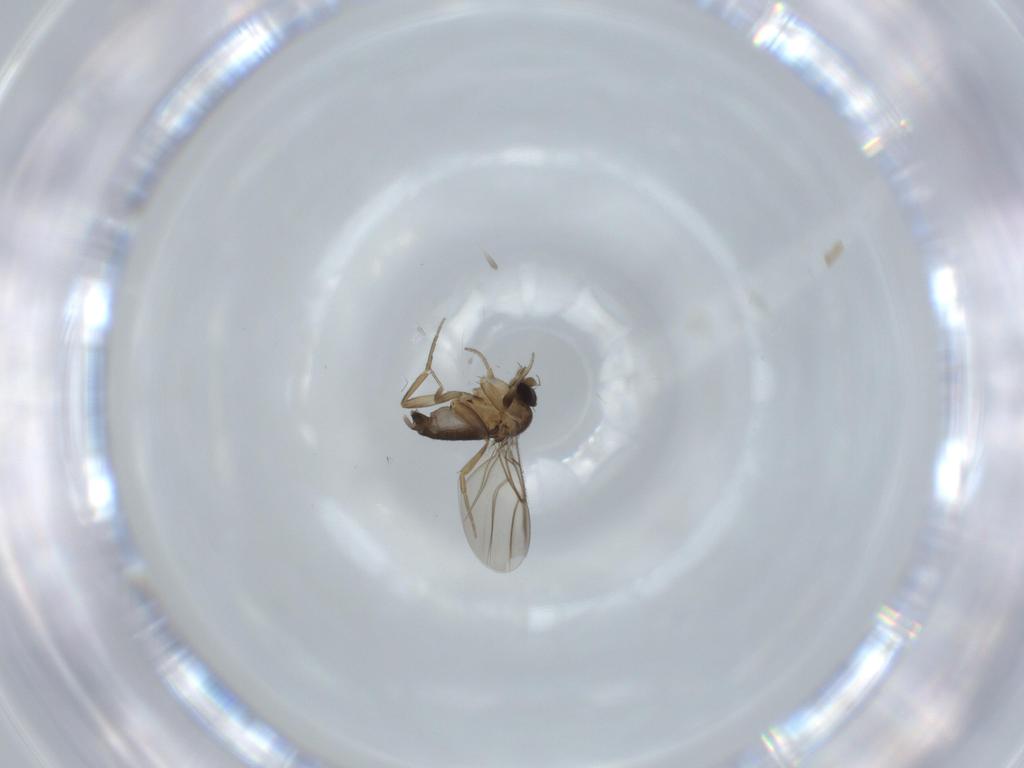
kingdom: Animalia
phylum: Arthropoda
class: Insecta
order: Diptera
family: Phoridae
